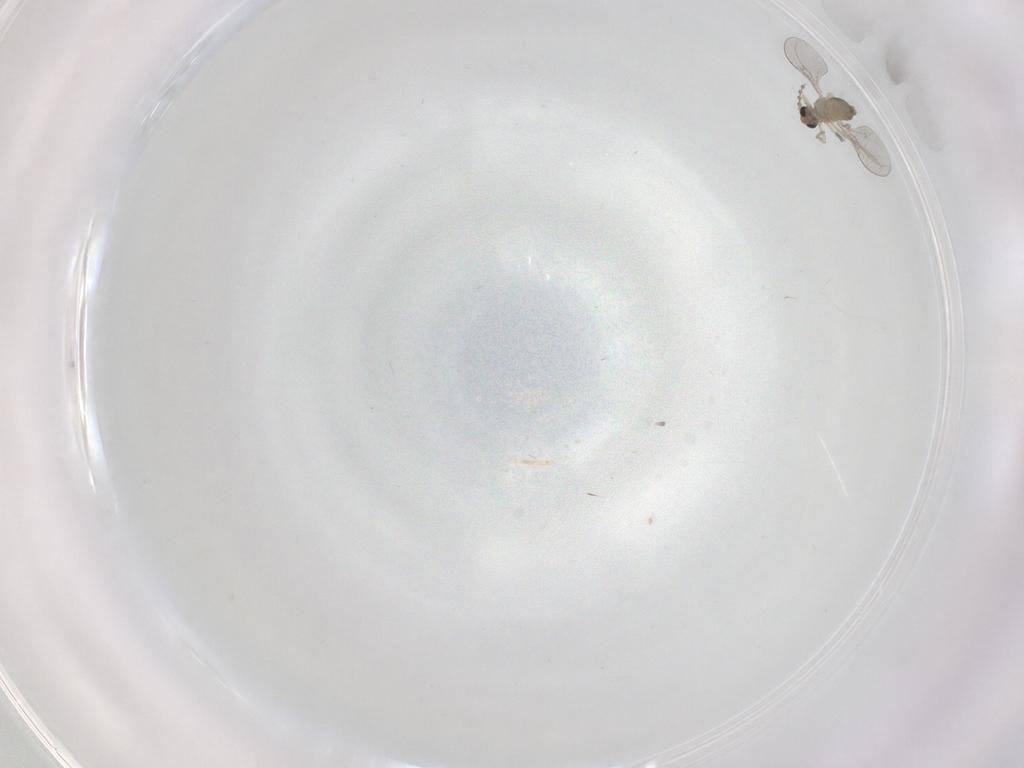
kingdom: Animalia
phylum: Arthropoda
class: Insecta
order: Diptera
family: Cecidomyiidae
